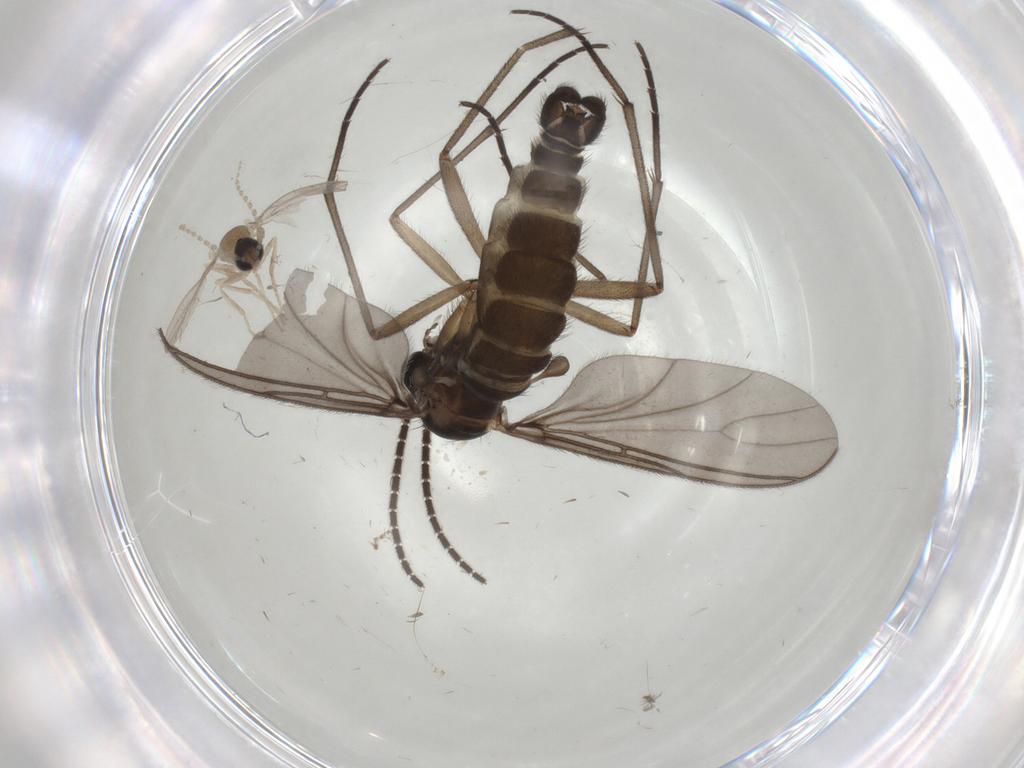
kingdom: Animalia
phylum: Arthropoda
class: Insecta
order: Diptera
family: Sciaridae
